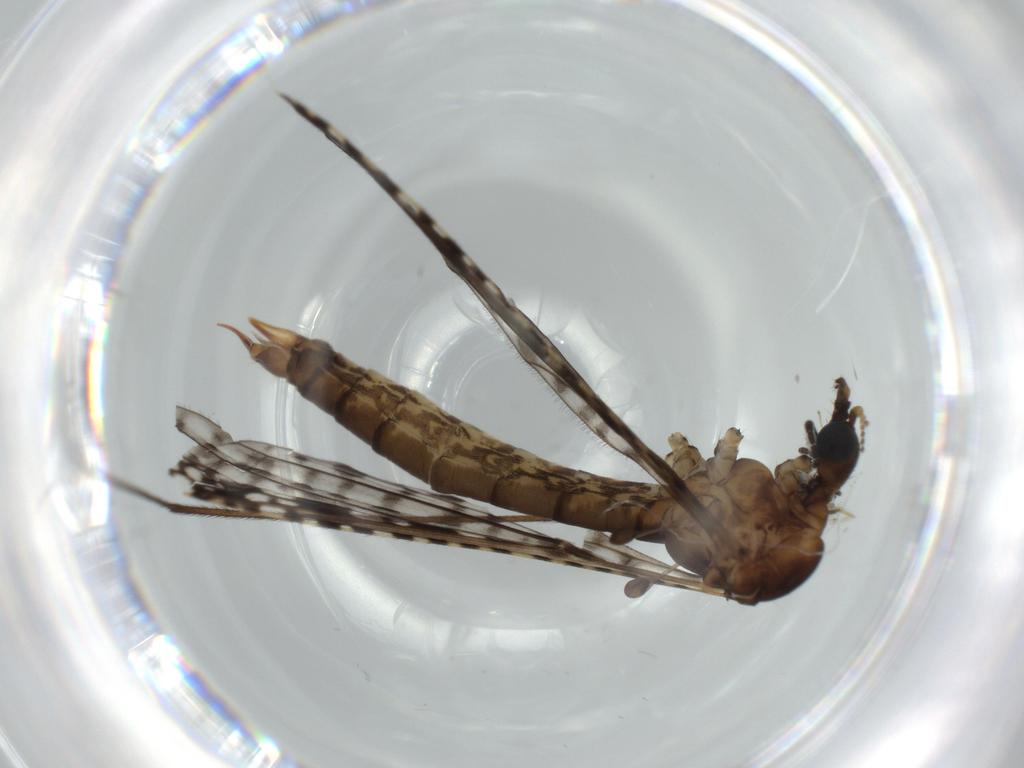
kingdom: Animalia
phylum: Arthropoda
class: Insecta
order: Diptera
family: Sciaridae
